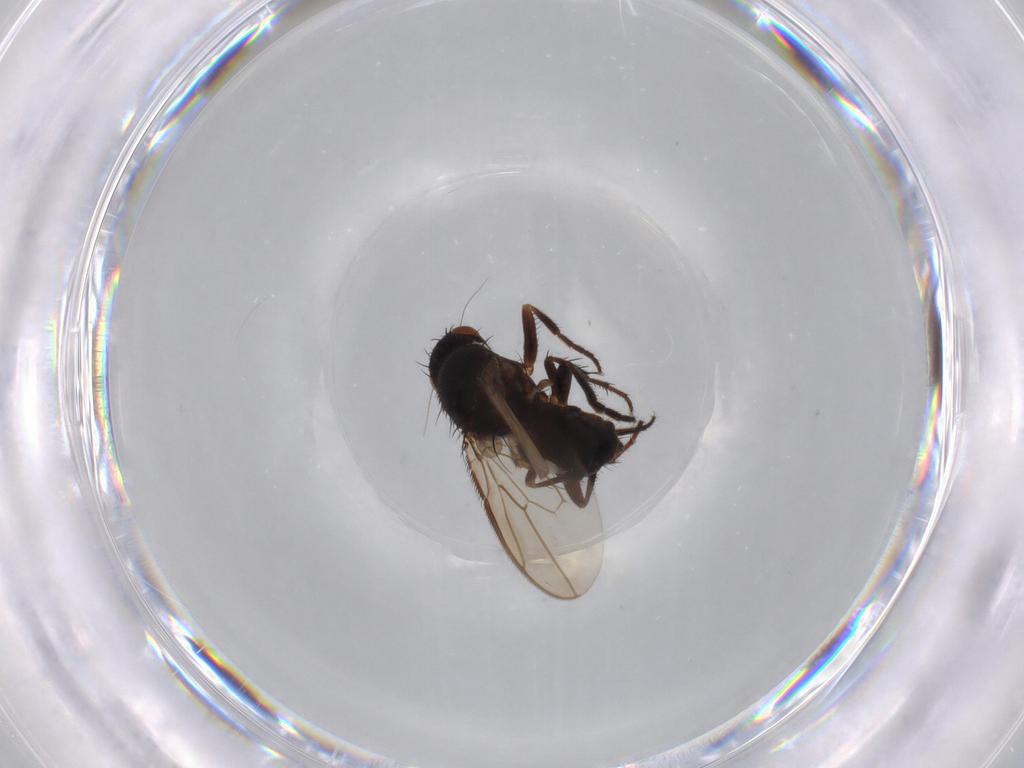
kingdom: Animalia
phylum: Arthropoda
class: Insecta
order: Diptera
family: Sphaeroceridae
